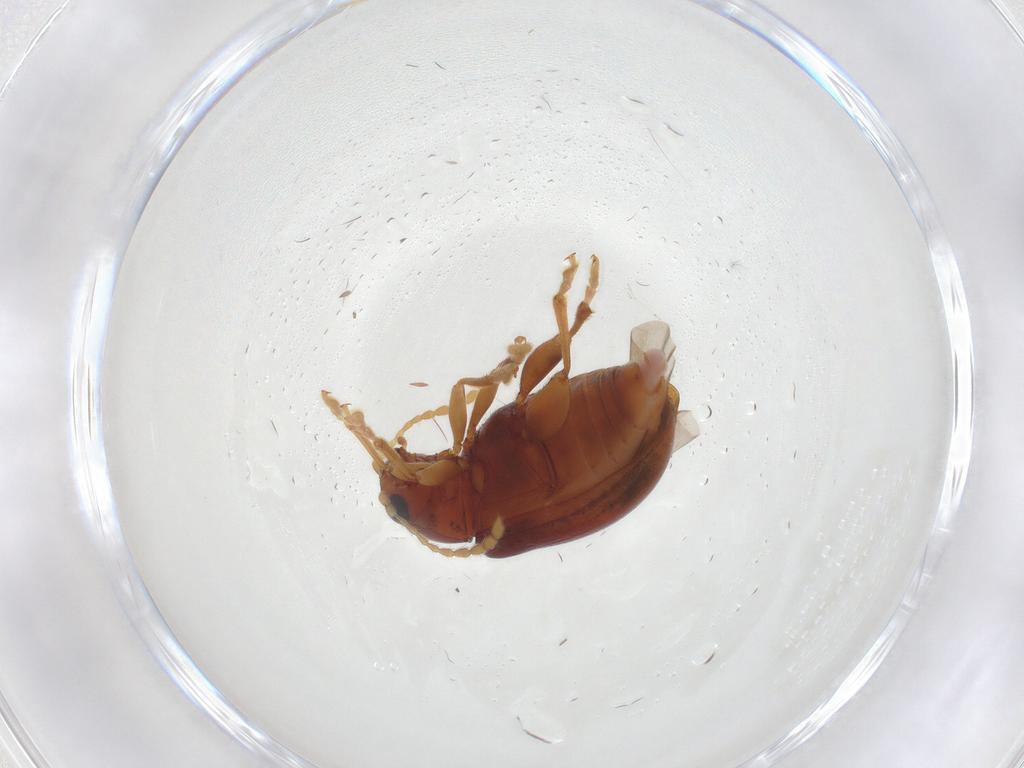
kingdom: Animalia
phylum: Arthropoda
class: Insecta
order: Coleoptera
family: Chrysomelidae
